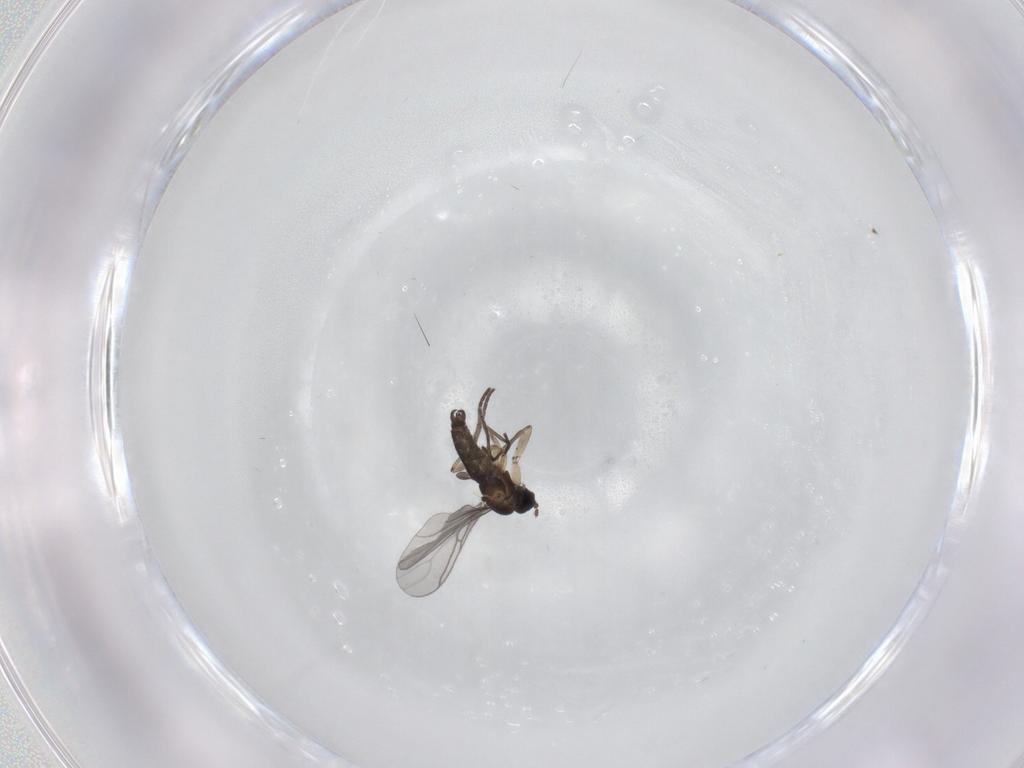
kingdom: Animalia
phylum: Arthropoda
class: Insecta
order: Diptera
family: Sciaridae
